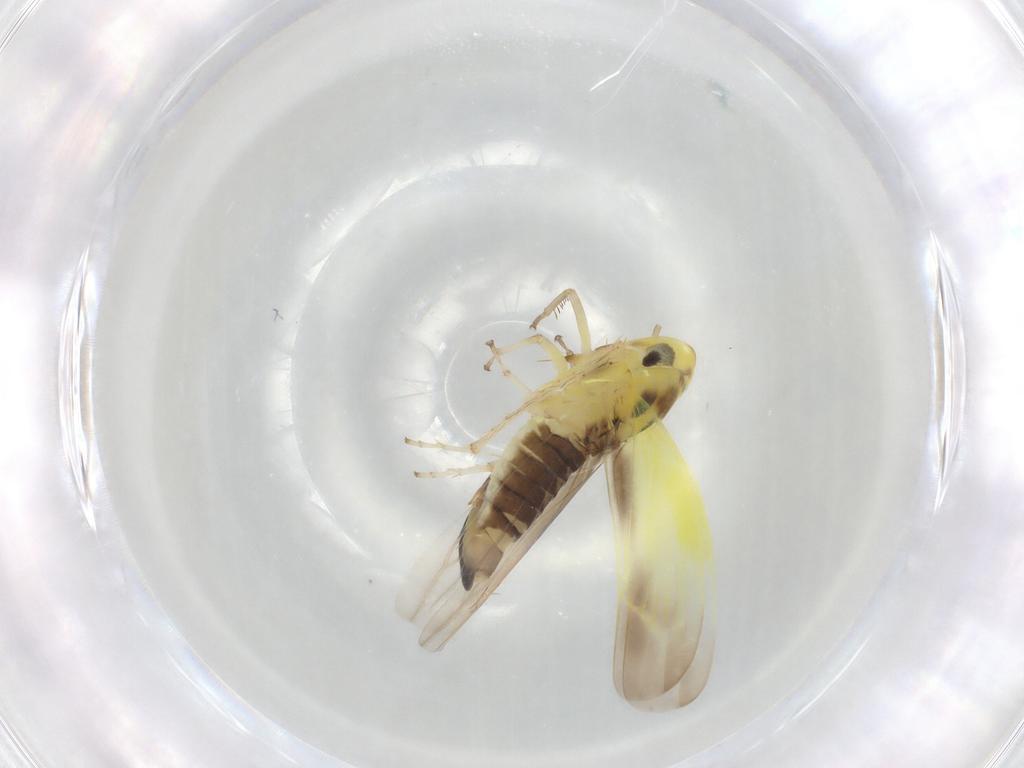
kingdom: Animalia
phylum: Arthropoda
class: Insecta
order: Hemiptera
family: Cicadellidae
